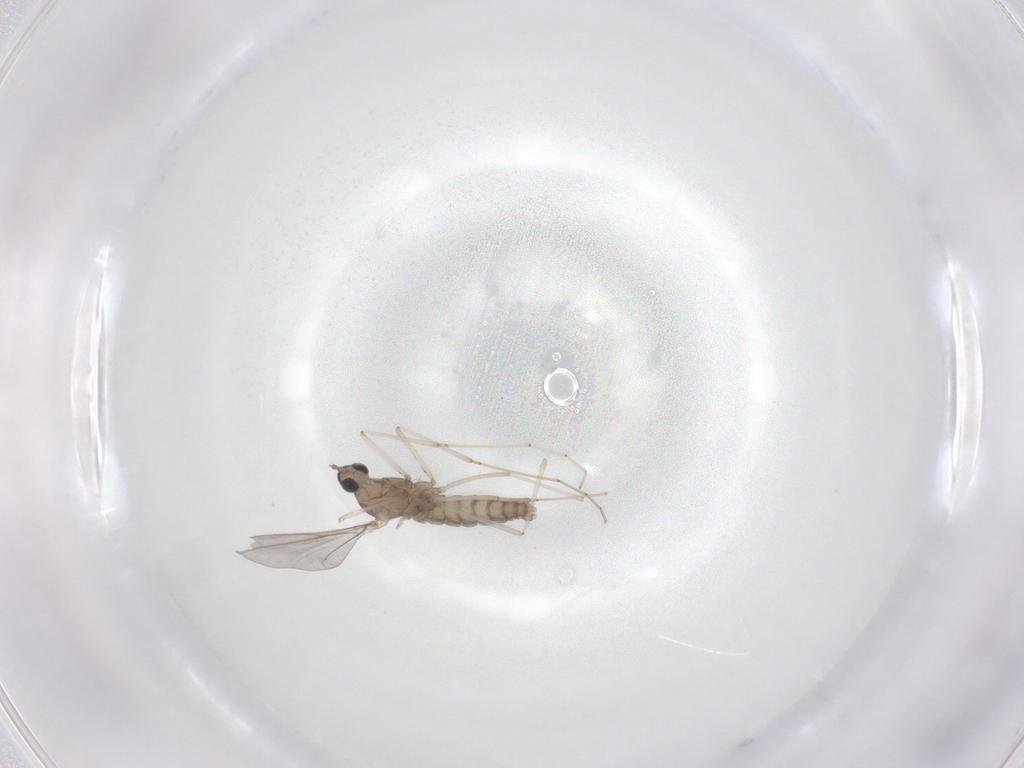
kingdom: Animalia
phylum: Arthropoda
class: Insecta
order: Diptera
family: Cecidomyiidae
